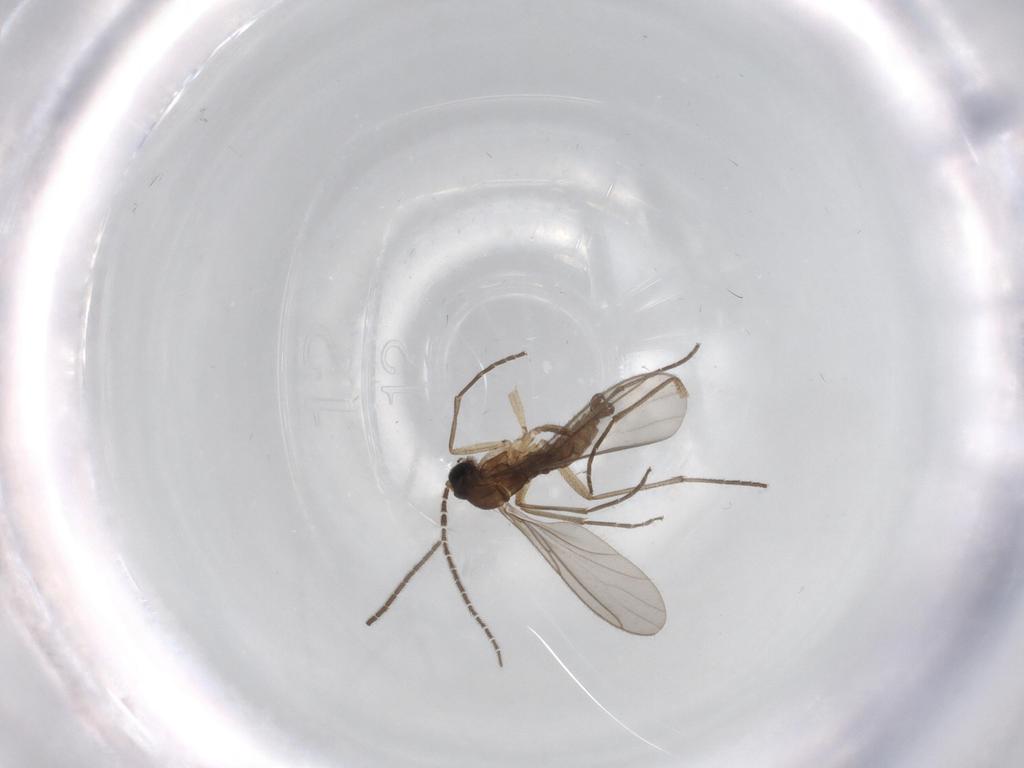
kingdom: Animalia
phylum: Arthropoda
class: Insecta
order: Diptera
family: Sciaridae
